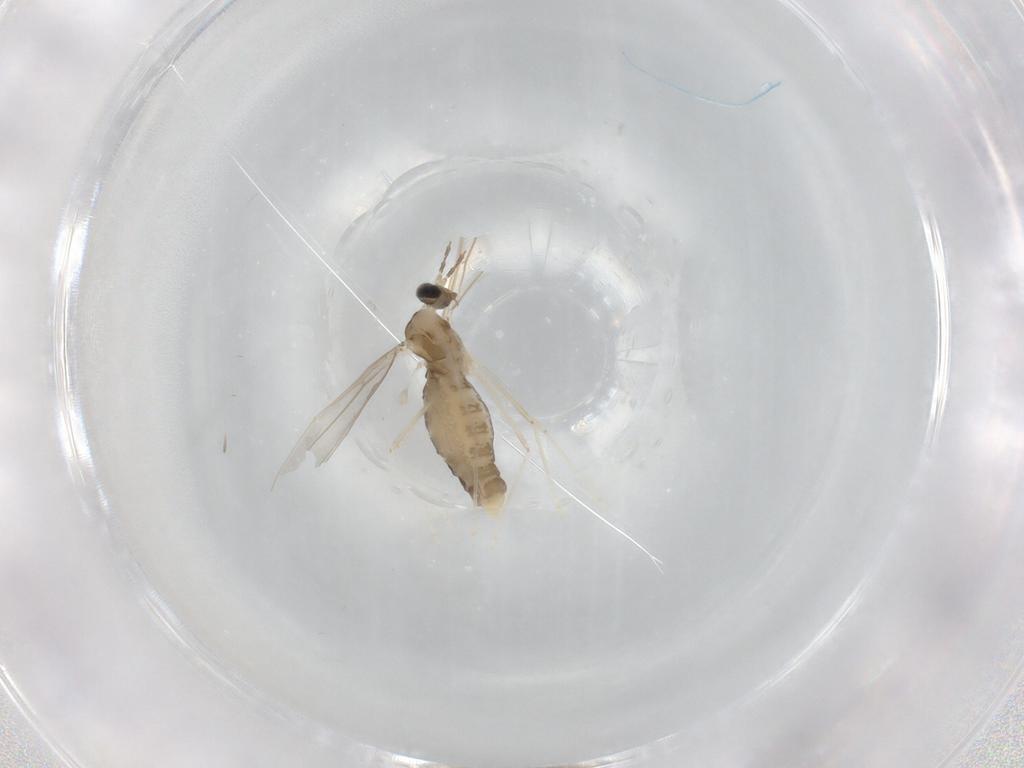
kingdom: Animalia
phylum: Arthropoda
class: Insecta
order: Diptera
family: Cecidomyiidae
